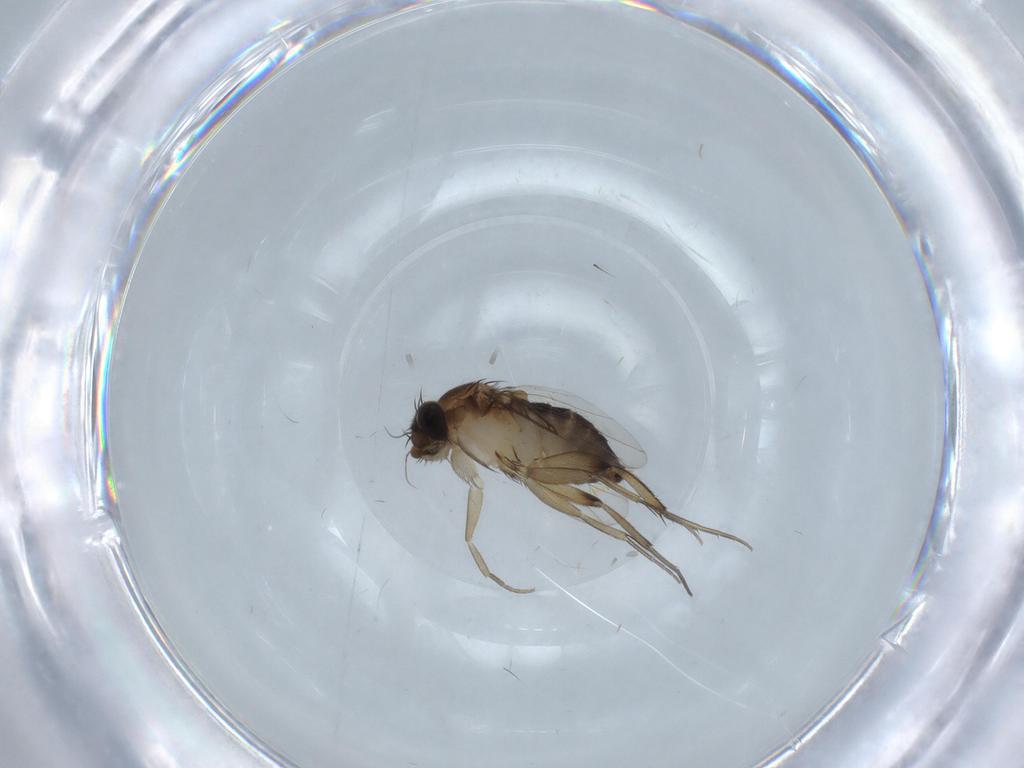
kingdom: Animalia
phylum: Arthropoda
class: Insecta
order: Diptera
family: Phoridae
